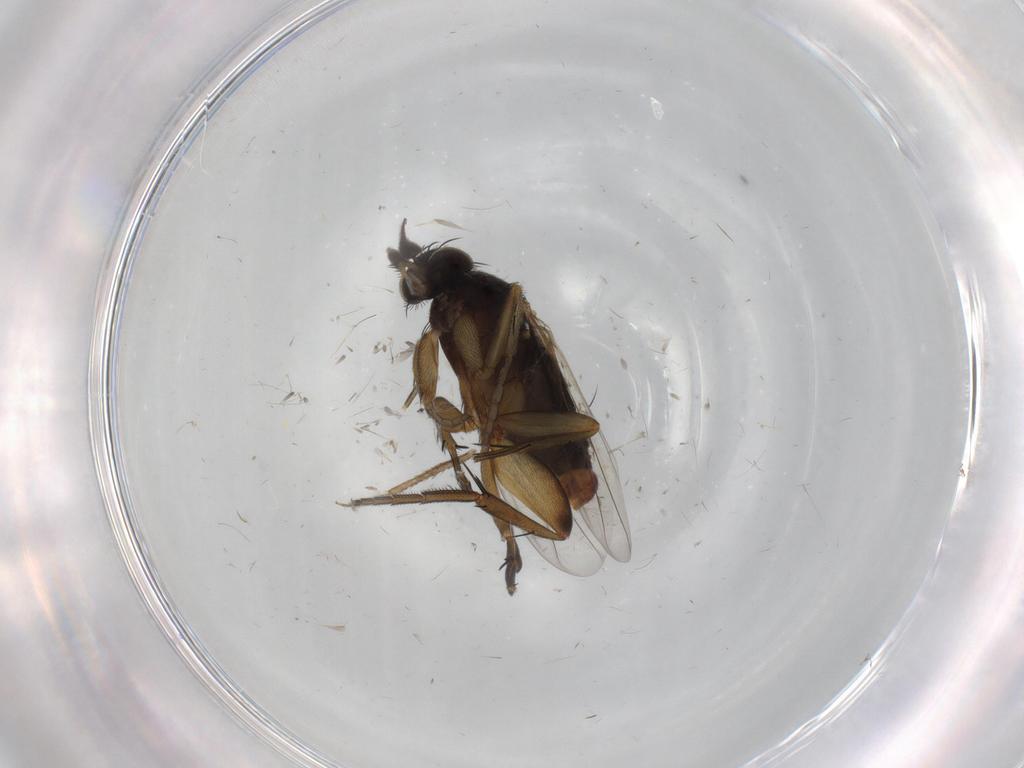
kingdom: Animalia
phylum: Arthropoda
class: Insecta
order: Diptera
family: Phoridae
